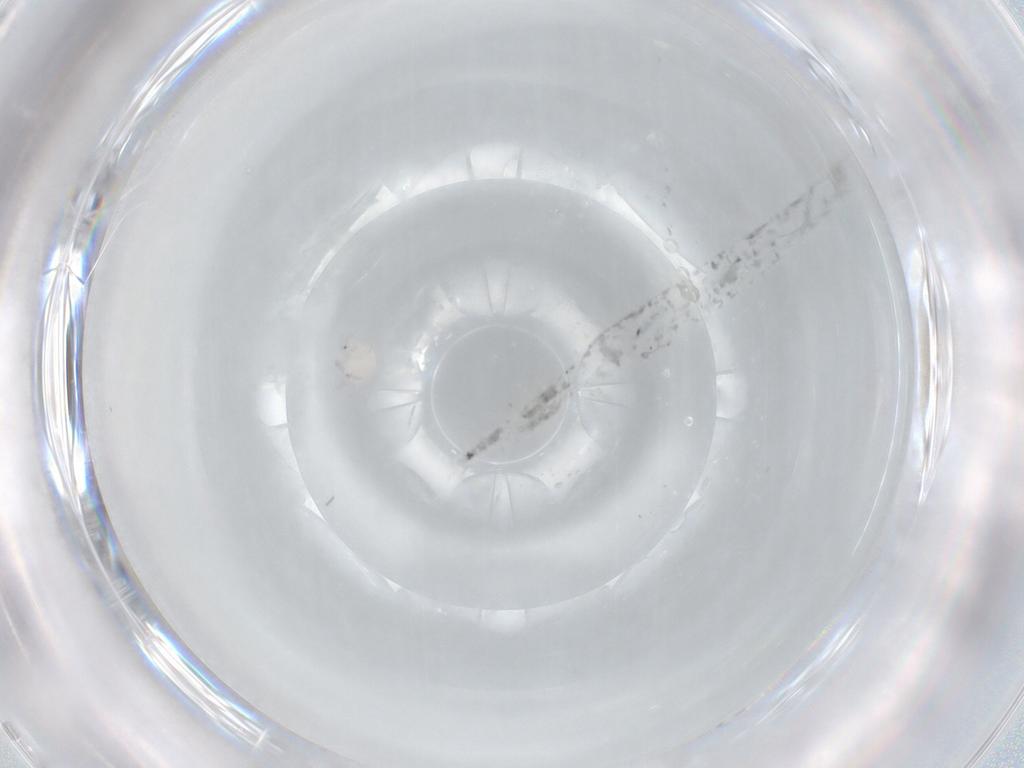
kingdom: Animalia
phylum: Arthropoda
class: Arachnida
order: Trombidiformes
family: Arrenuridae
